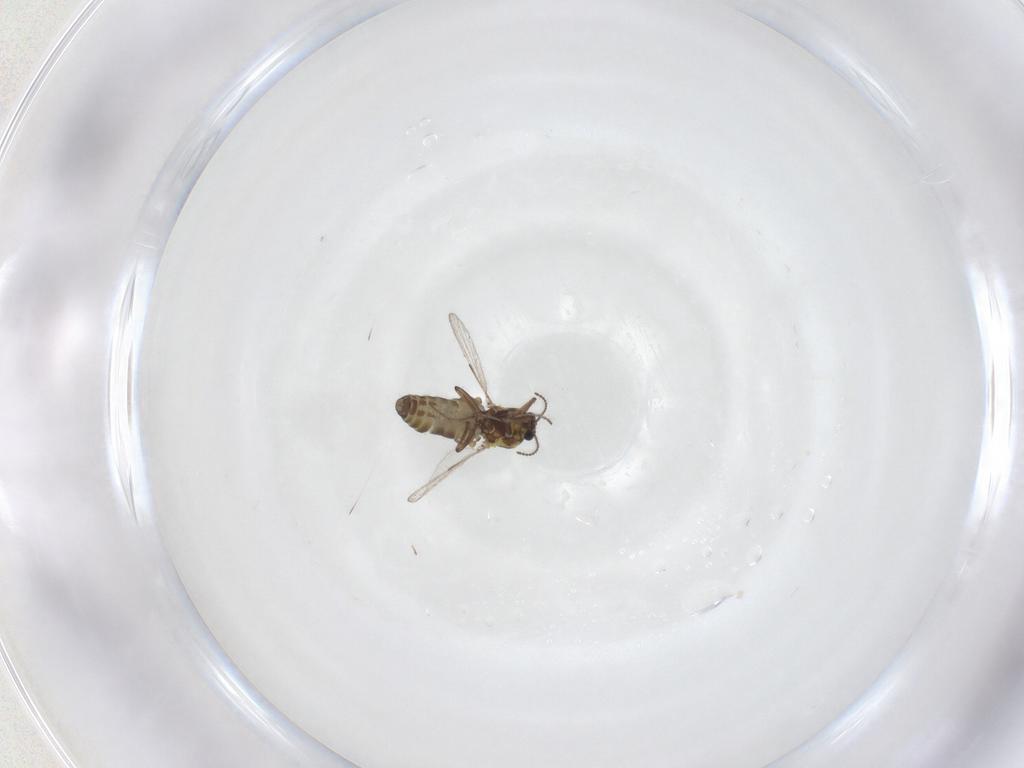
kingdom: Animalia
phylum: Arthropoda
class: Insecta
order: Diptera
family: Ceratopogonidae
